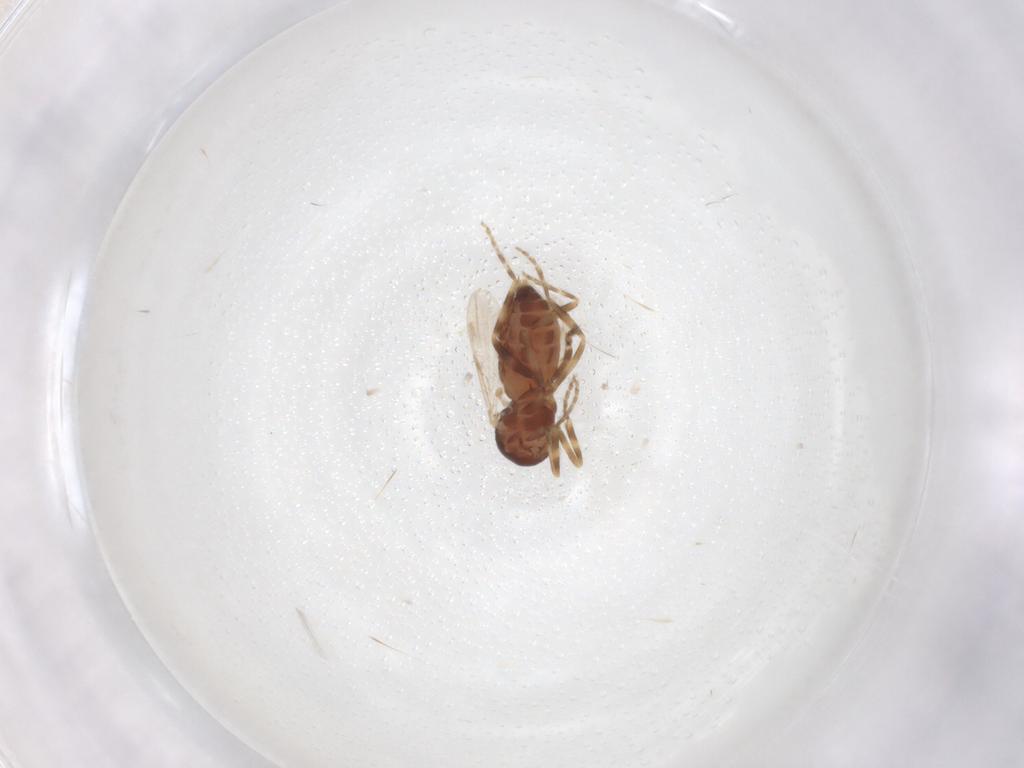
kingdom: Animalia
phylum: Arthropoda
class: Insecta
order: Diptera
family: Ceratopogonidae
